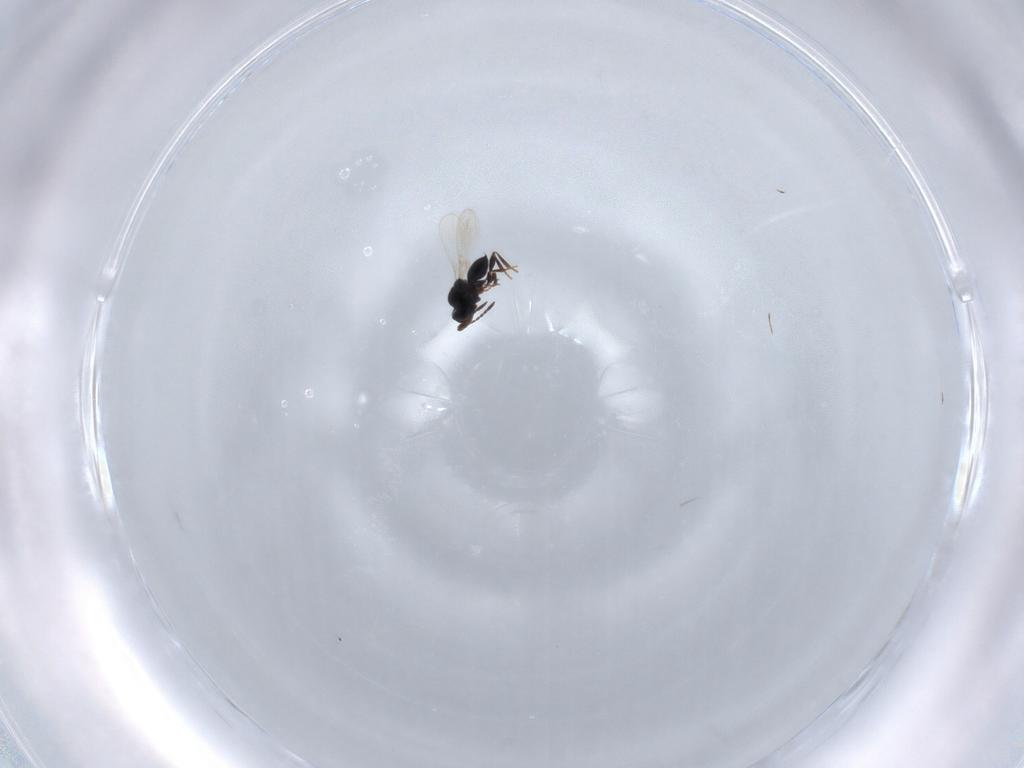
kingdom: Animalia
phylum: Arthropoda
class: Insecta
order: Hymenoptera
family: Platygastridae
